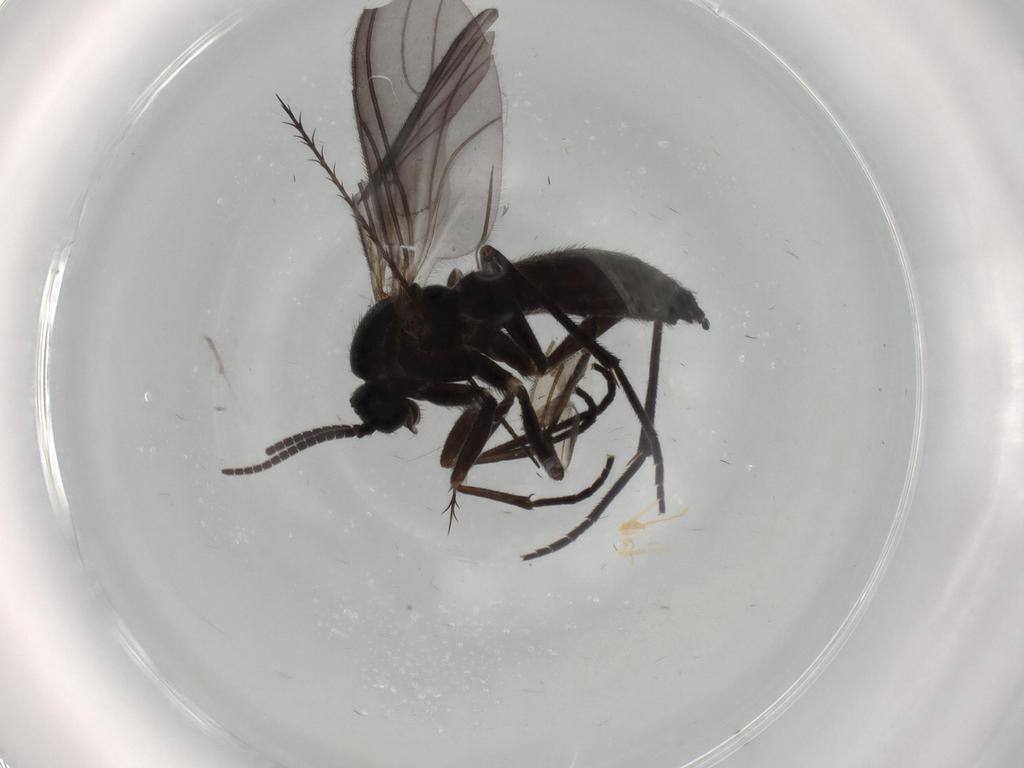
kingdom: Animalia
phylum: Arthropoda
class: Insecta
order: Diptera
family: Sciaridae
